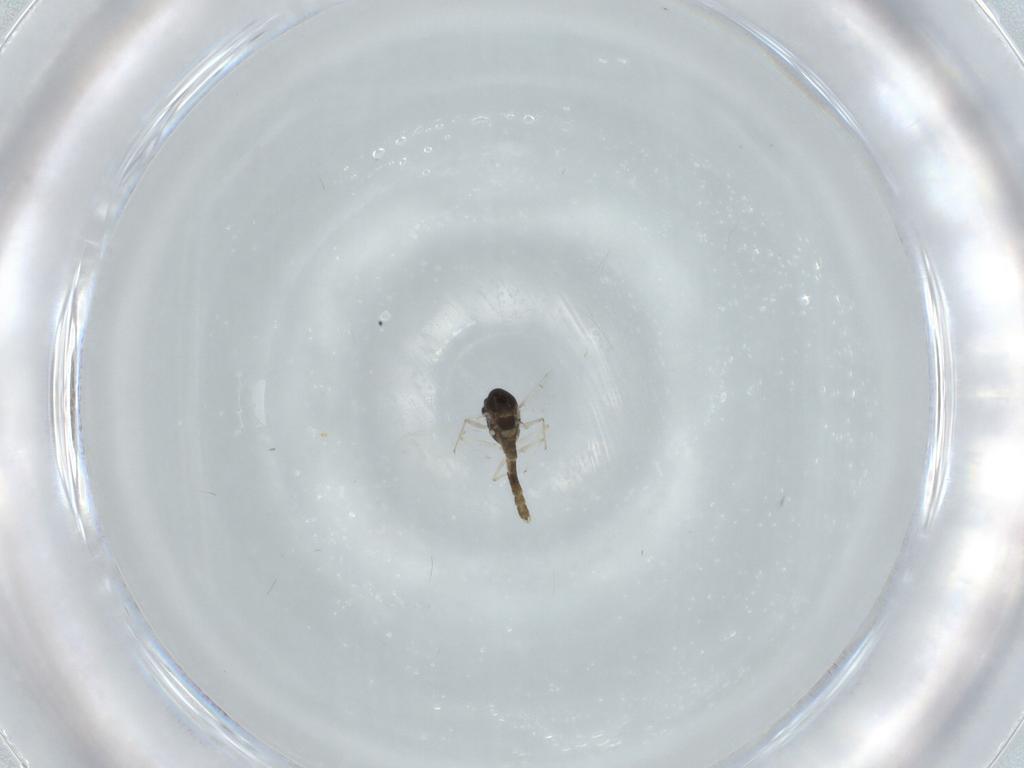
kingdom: Animalia
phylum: Arthropoda
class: Insecta
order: Diptera
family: Chironomidae
